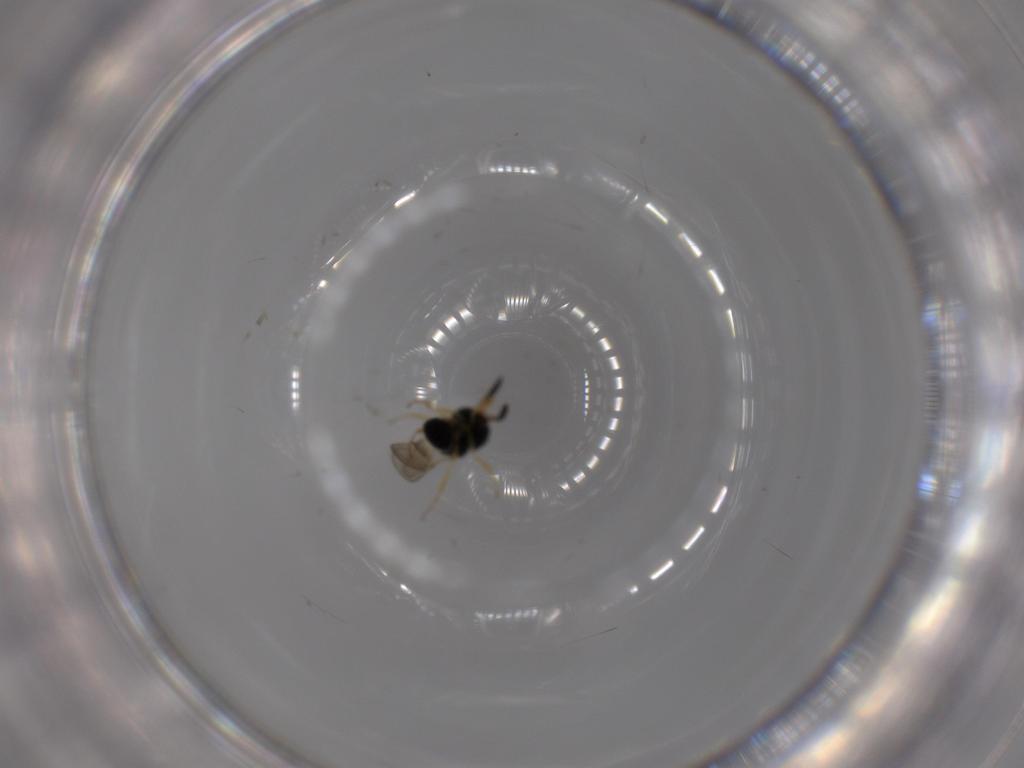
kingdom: Animalia
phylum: Arthropoda
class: Insecta
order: Hymenoptera
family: Scelionidae
